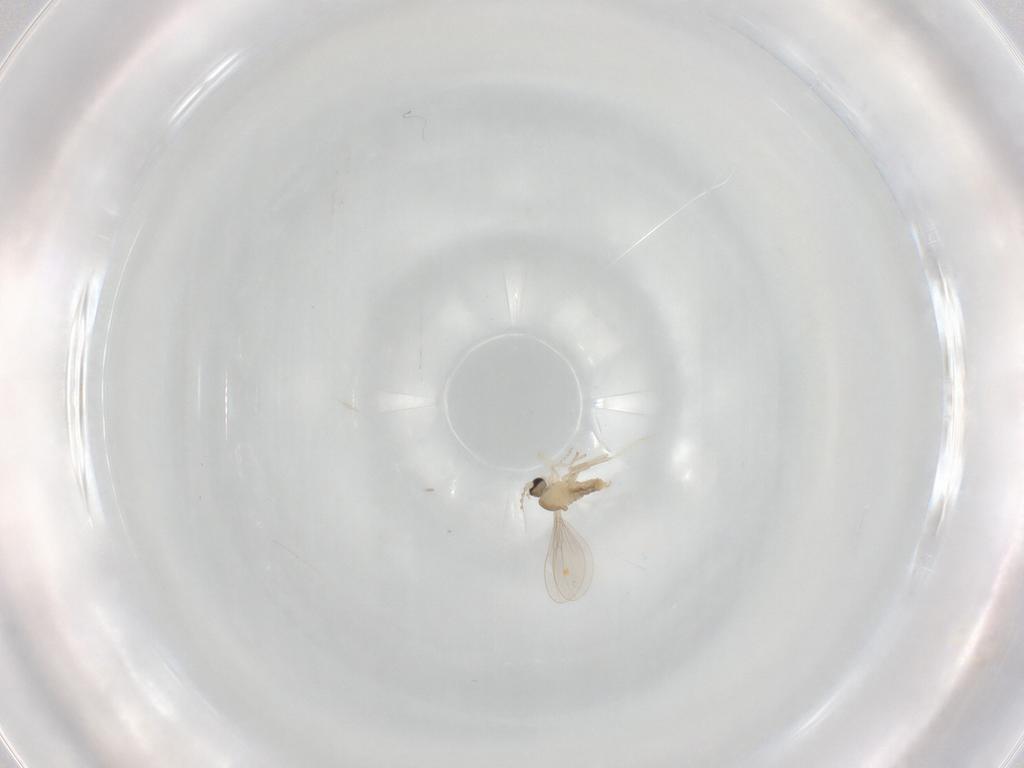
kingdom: Animalia
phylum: Arthropoda
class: Insecta
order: Diptera
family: Cecidomyiidae
